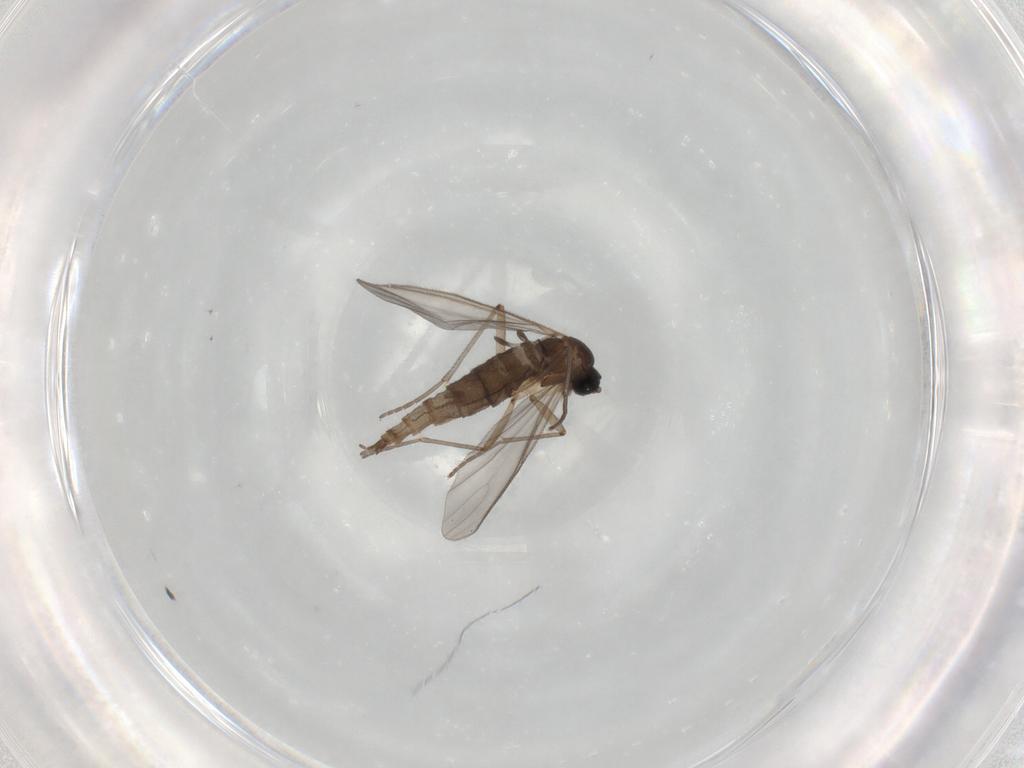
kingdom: Animalia
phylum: Arthropoda
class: Insecta
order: Diptera
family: Sciaridae
